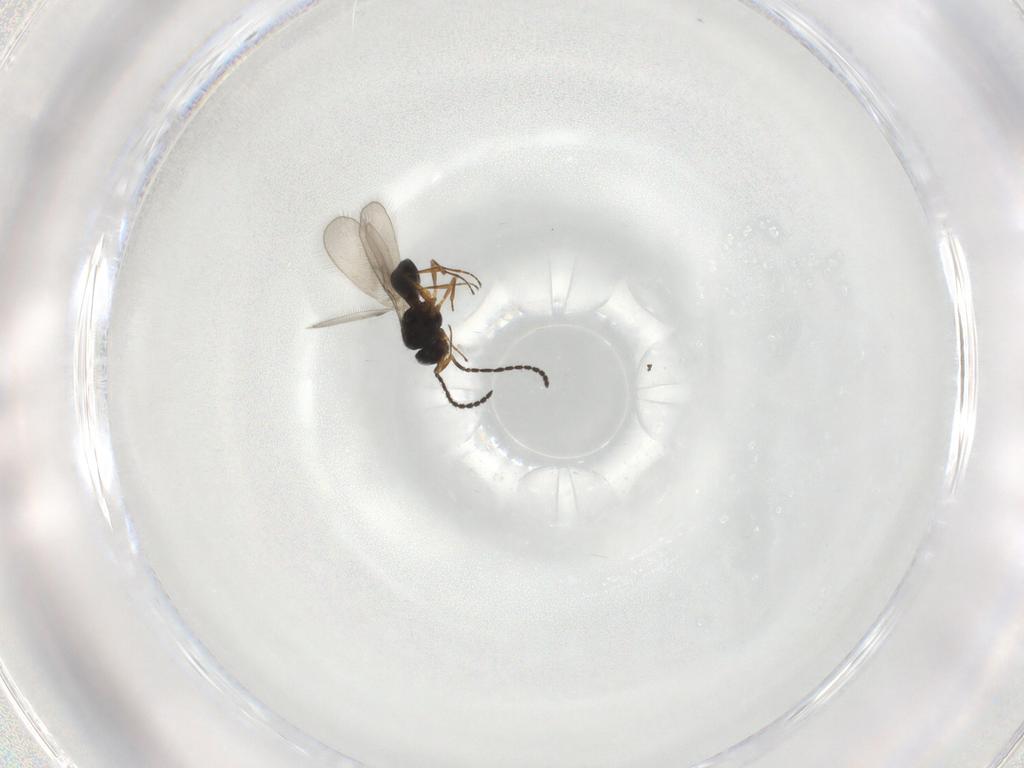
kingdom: Animalia
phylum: Arthropoda
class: Insecta
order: Hymenoptera
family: Scelionidae
